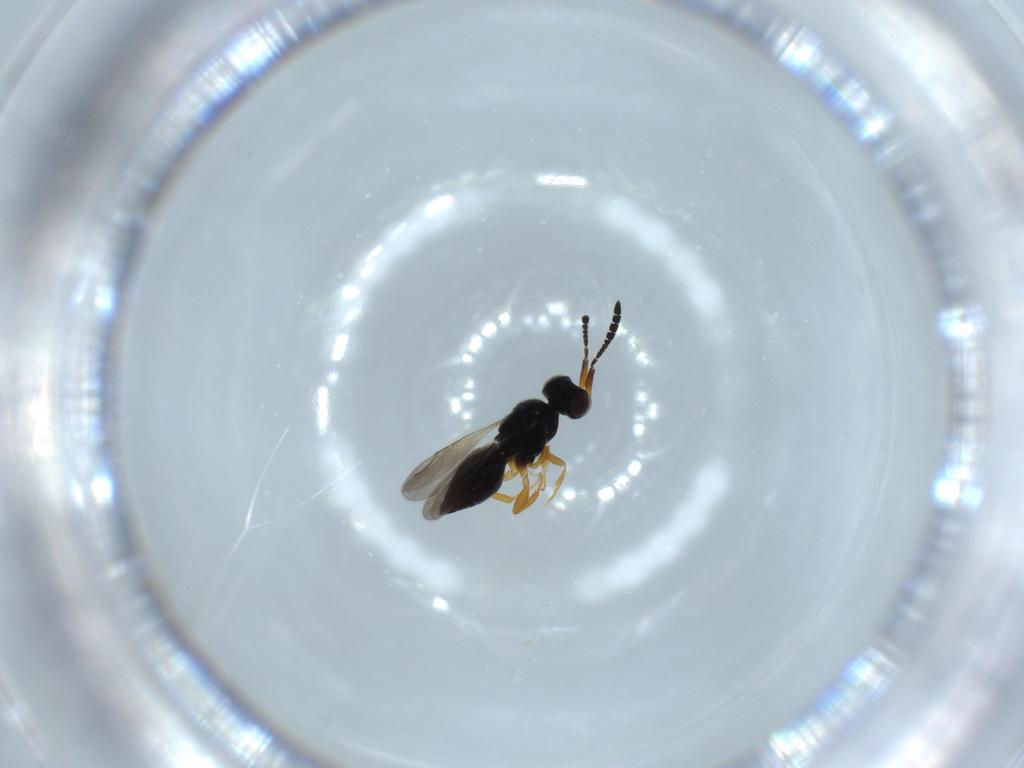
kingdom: Animalia
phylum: Arthropoda
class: Insecta
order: Hymenoptera
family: Ceraphronidae
